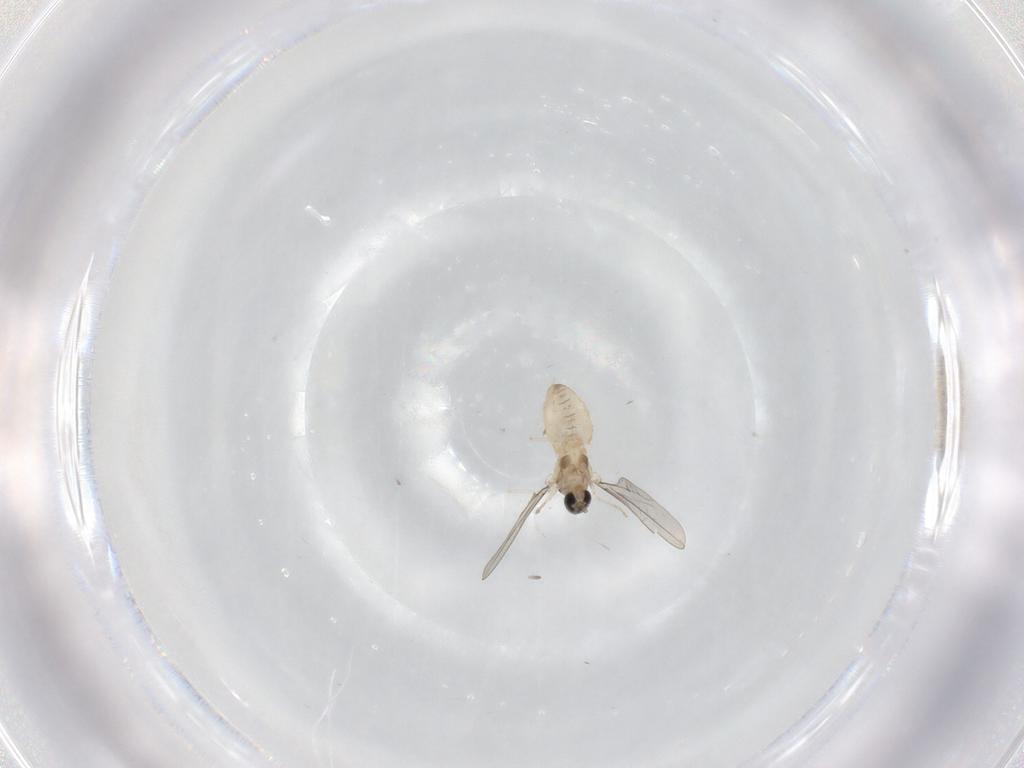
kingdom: Animalia
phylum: Arthropoda
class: Insecta
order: Diptera
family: Cecidomyiidae
